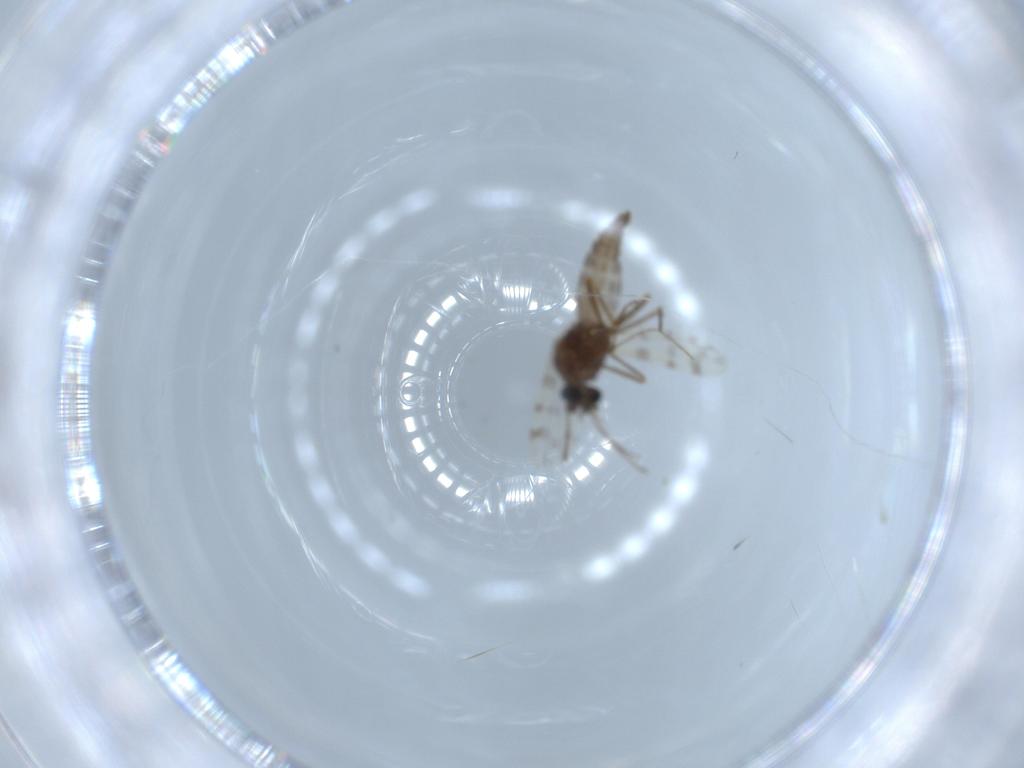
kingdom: Animalia
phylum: Arthropoda
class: Insecta
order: Diptera
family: Ceratopogonidae
